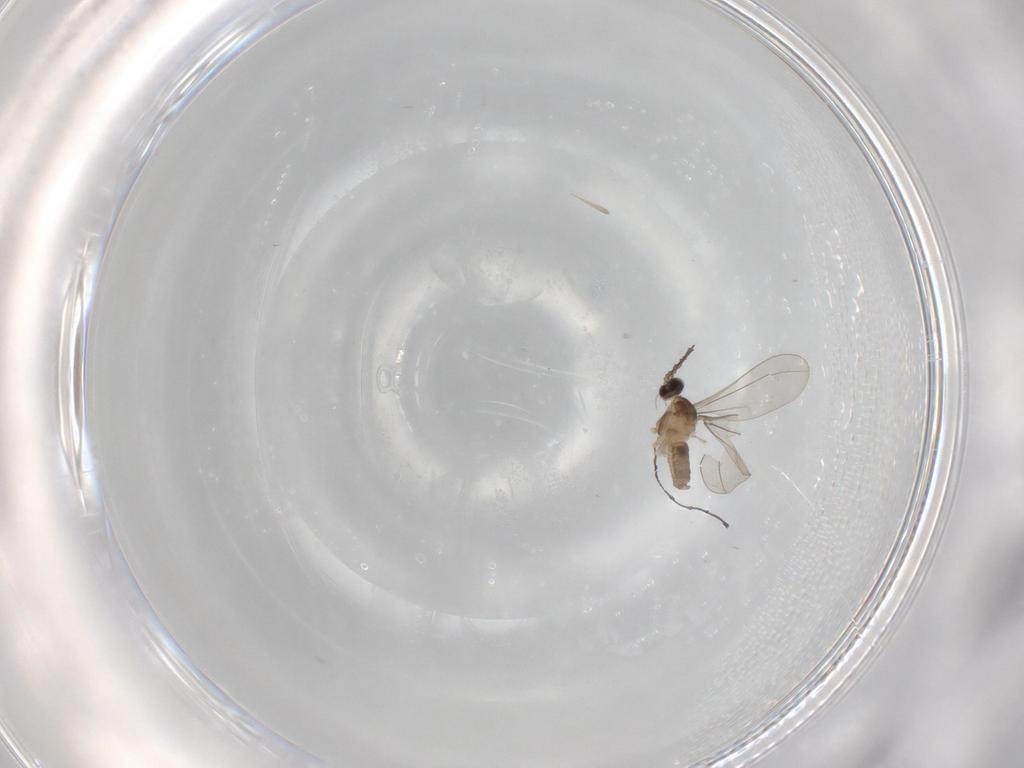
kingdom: Animalia
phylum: Arthropoda
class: Insecta
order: Diptera
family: Cecidomyiidae
